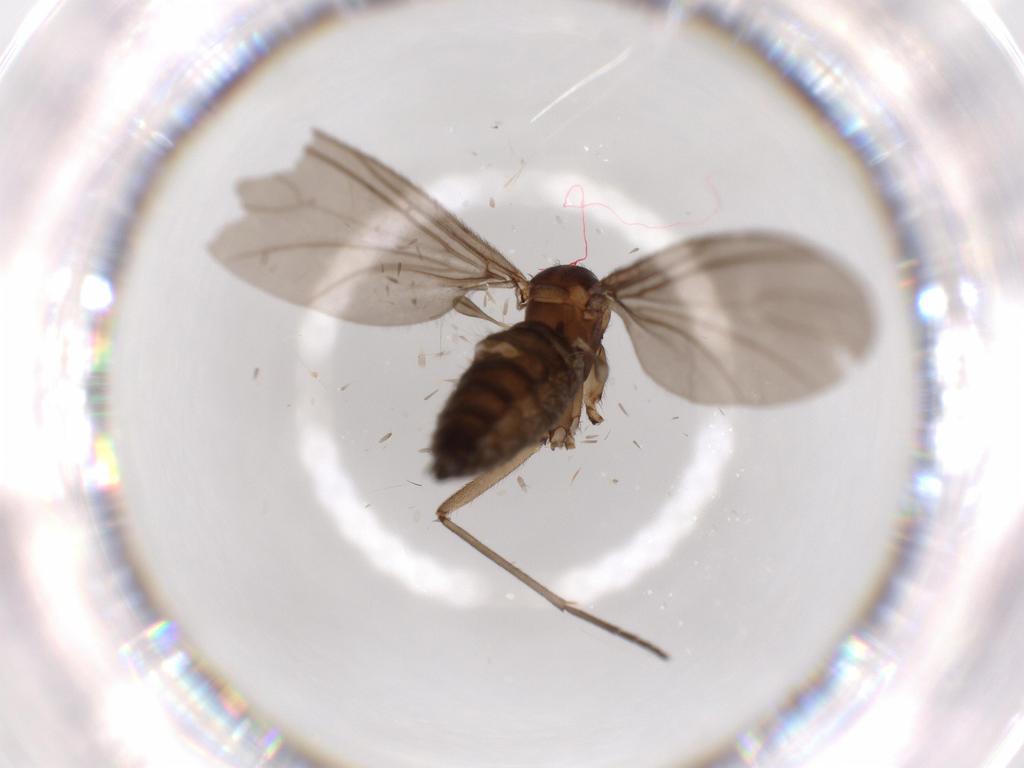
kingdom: Animalia
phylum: Arthropoda
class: Insecta
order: Diptera
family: Sciaridae
